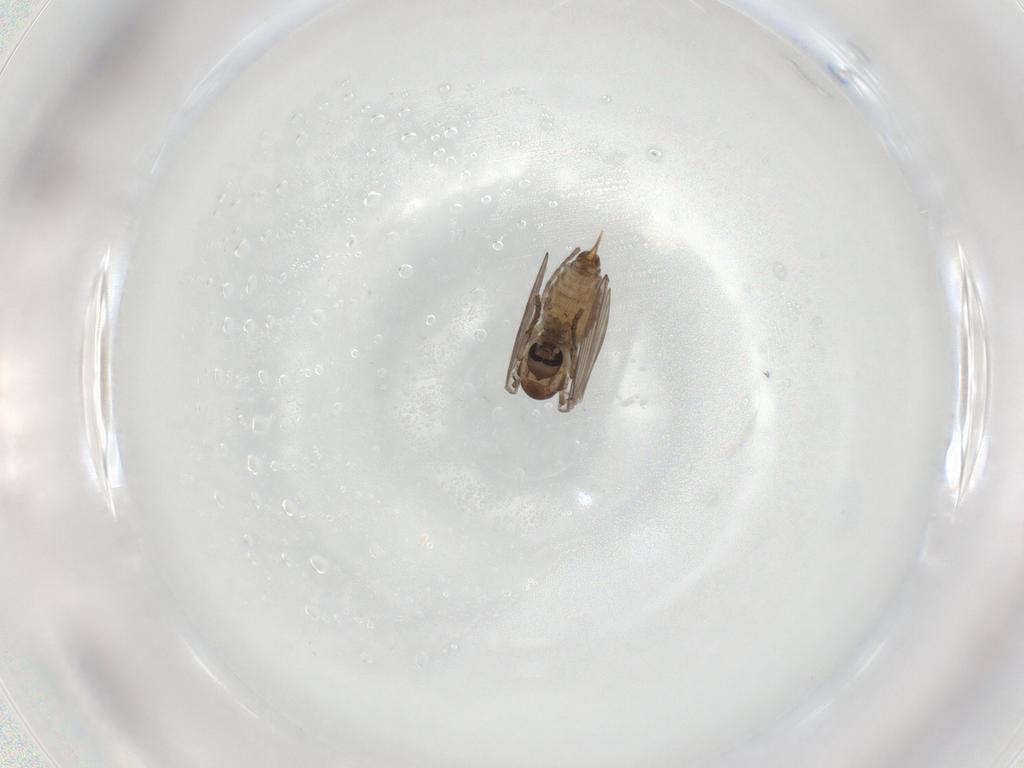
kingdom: Animalia
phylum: Arthropoda
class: Insecta
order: Diptera
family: Psychodidae
